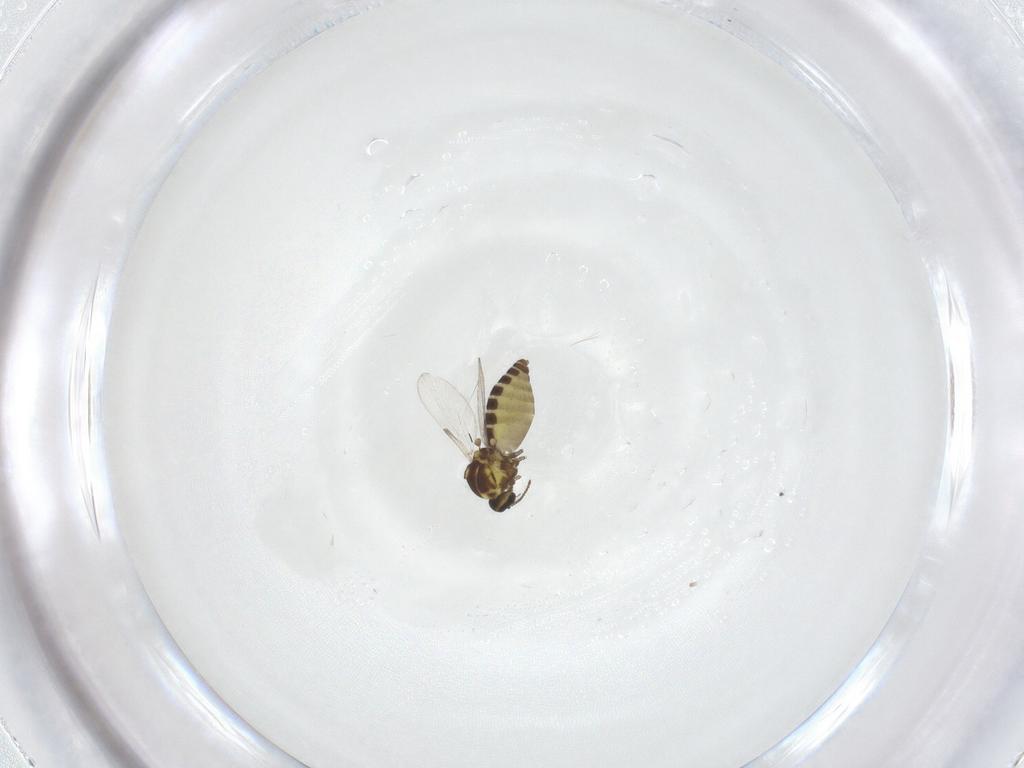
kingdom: Animalia
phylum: Arthropoda
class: Insecta
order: Diptera
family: Ceratopogonidae
